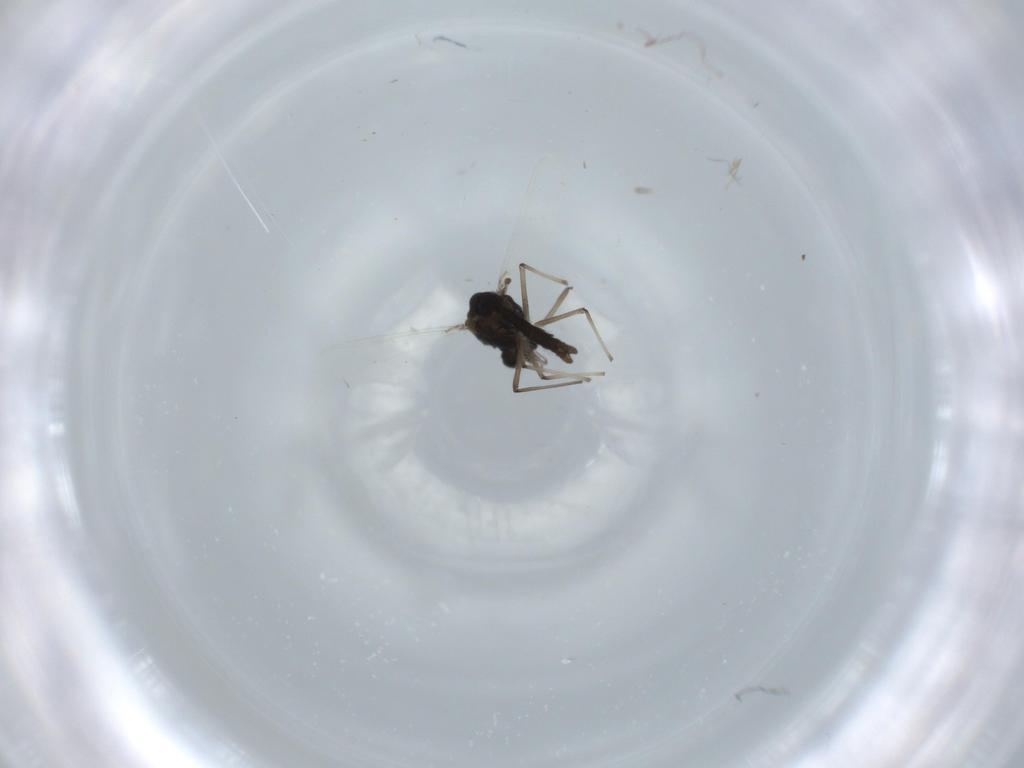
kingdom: Animalia
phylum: Arthropoda
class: Insecta
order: Diptera
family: Chironomidae
